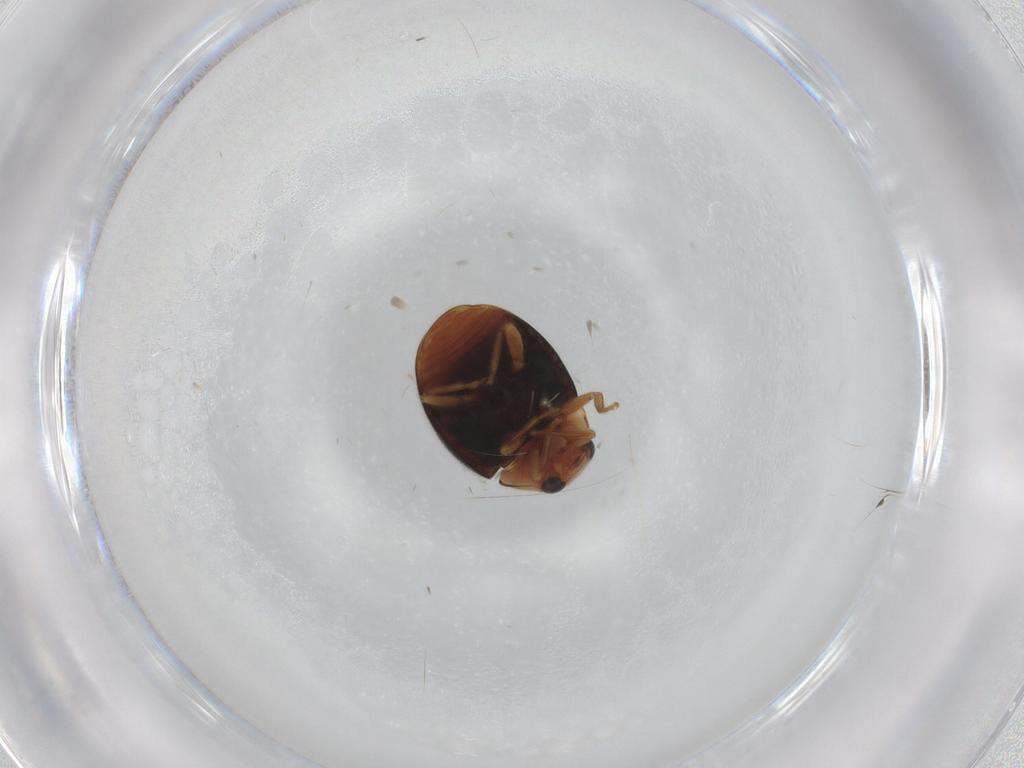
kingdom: Animalia
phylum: Arthropoda
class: Insecta
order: Coleoptera
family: Coccinellidae
